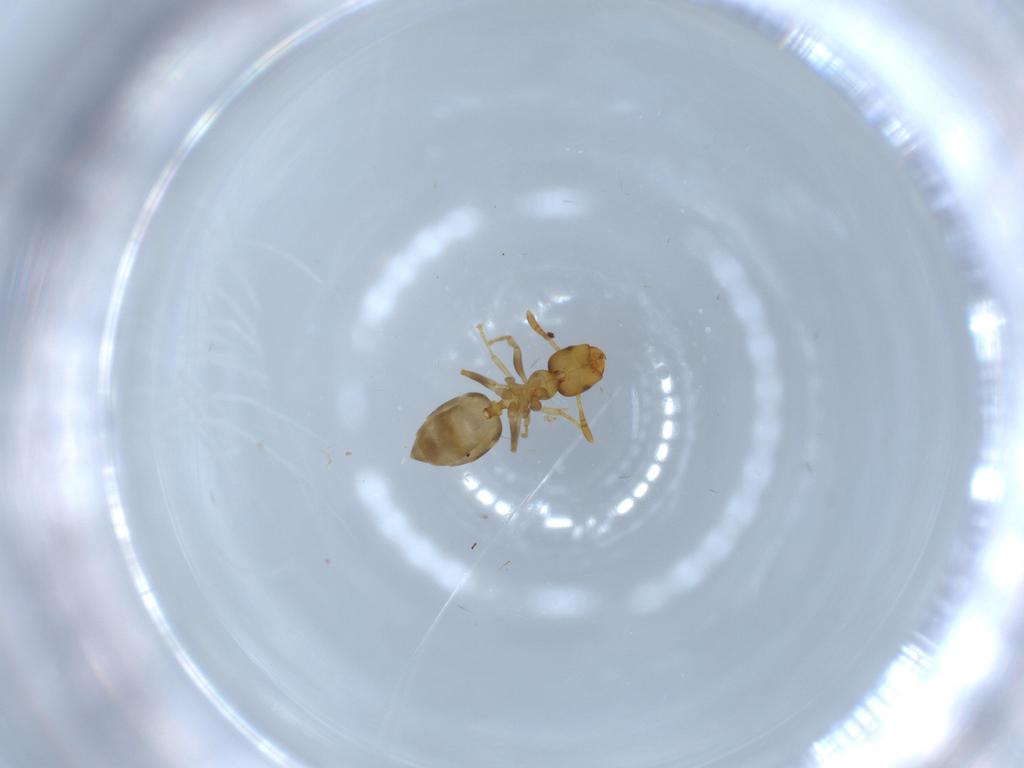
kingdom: Animalia
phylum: Arthropoda
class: Insecta
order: Hymenoptera
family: Formicidae
